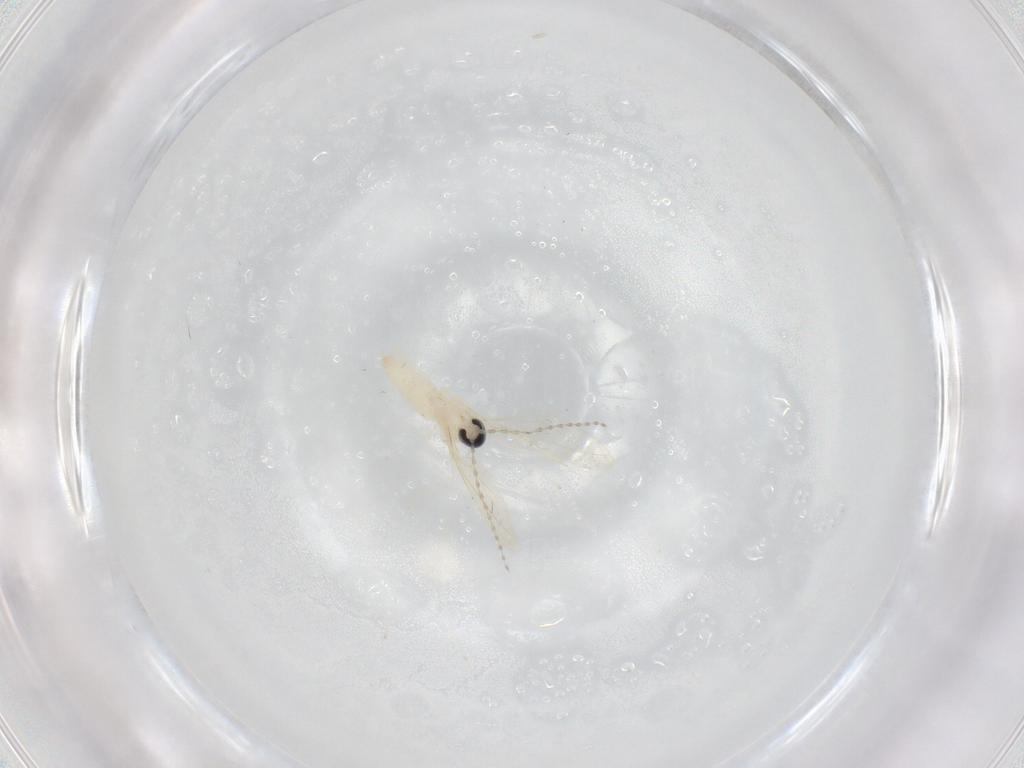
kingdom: Animalia
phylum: Arthropoda
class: Insecta
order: Diptera
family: Cecidomyiidae
